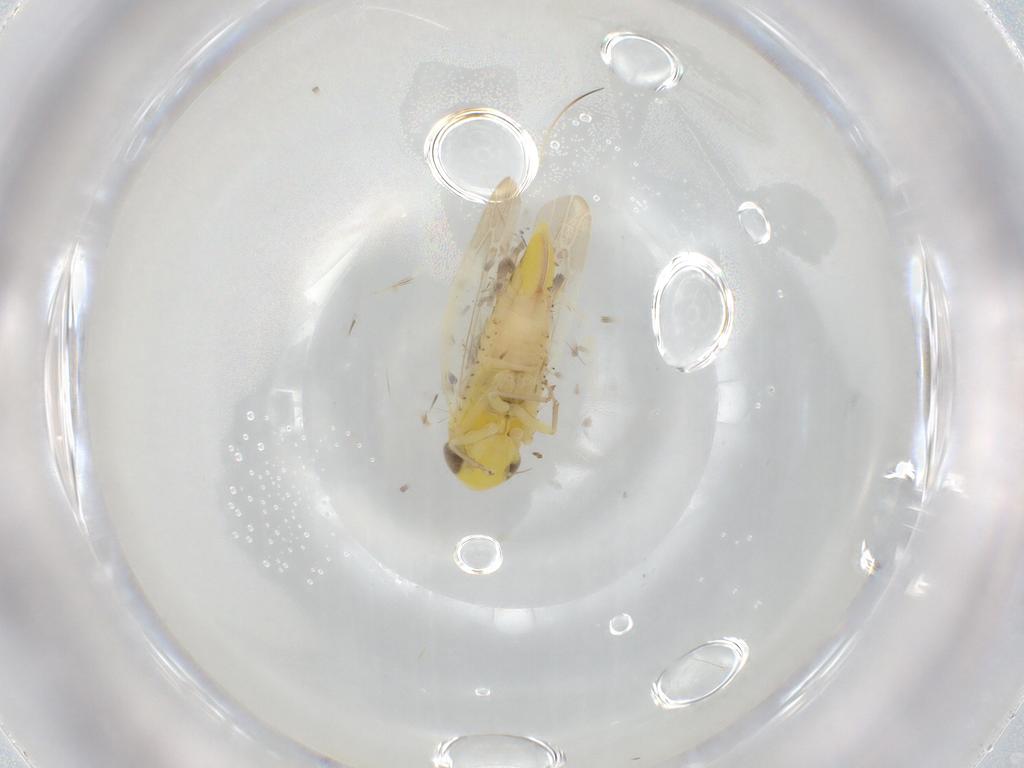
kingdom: Animalia
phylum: Arthropoda
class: Insecta
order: Hemiptera
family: Cicadellidae
